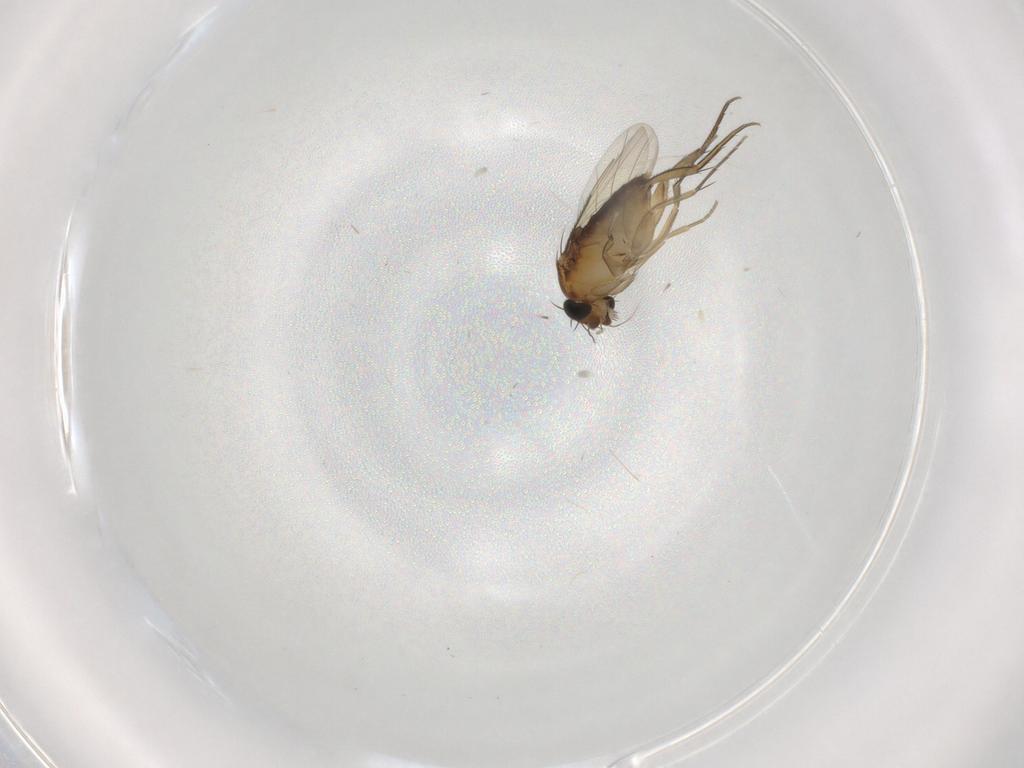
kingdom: Animalia
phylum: Arthropoda
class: Insecta
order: Diptera
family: Phoridae
